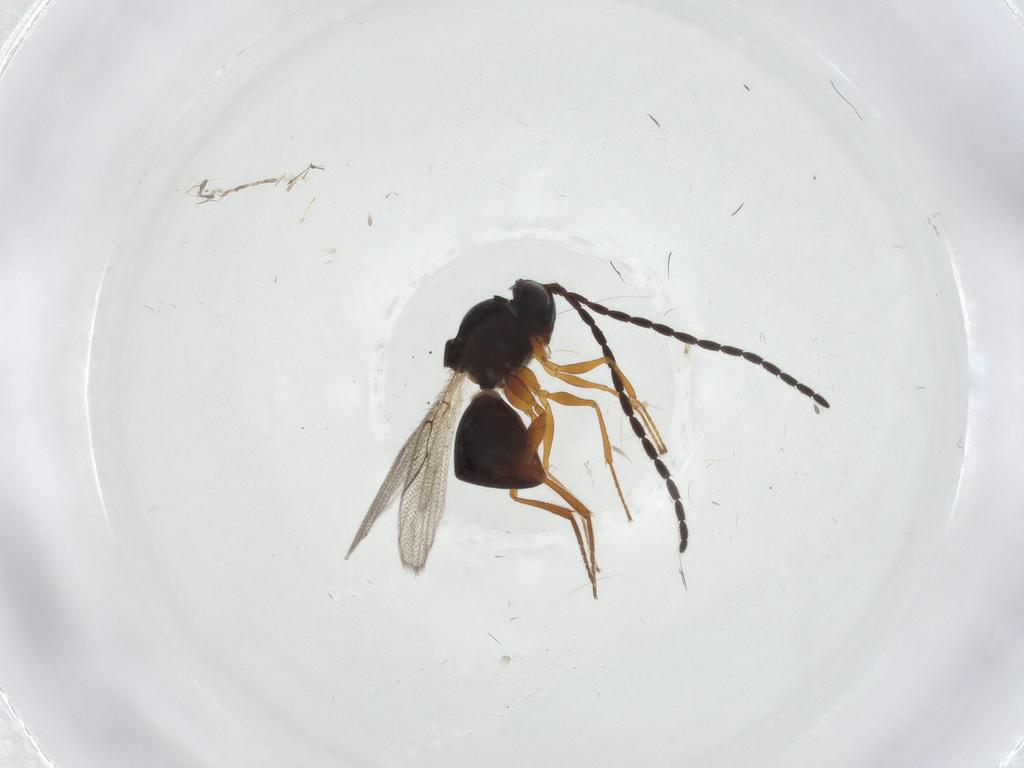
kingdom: Animalia
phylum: Arthropoda
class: Insecta
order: Hymenoptera
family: Figitidae
